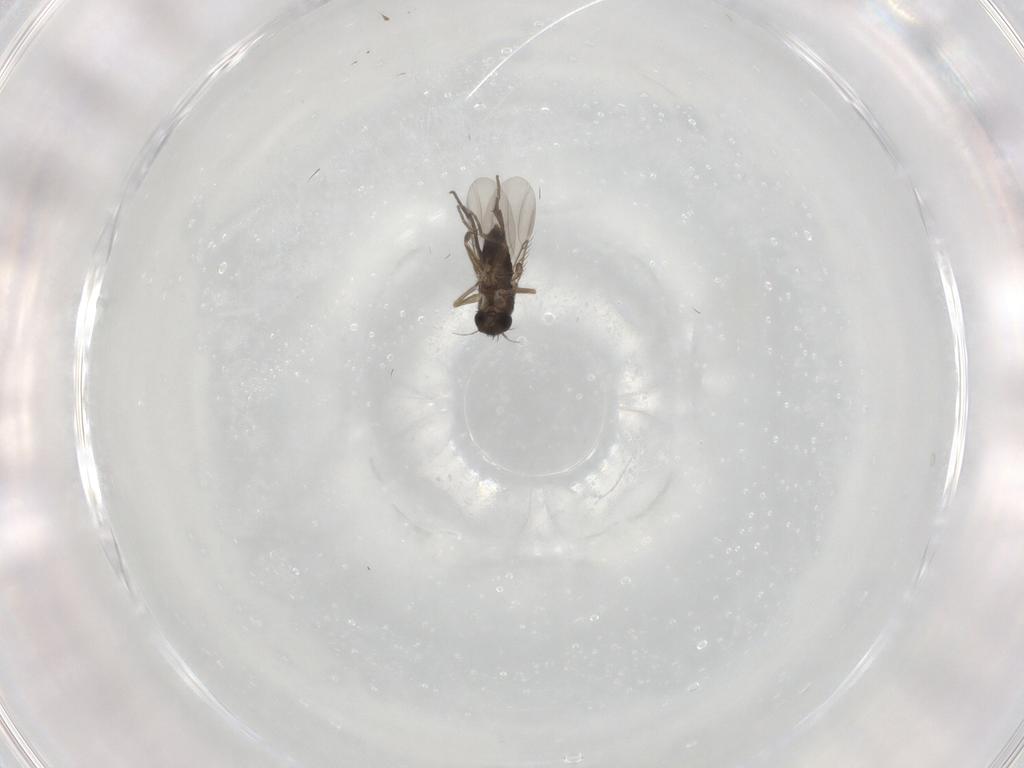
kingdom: Animalia
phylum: Arthropoda
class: Insecta
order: Diptera
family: Phoridae
